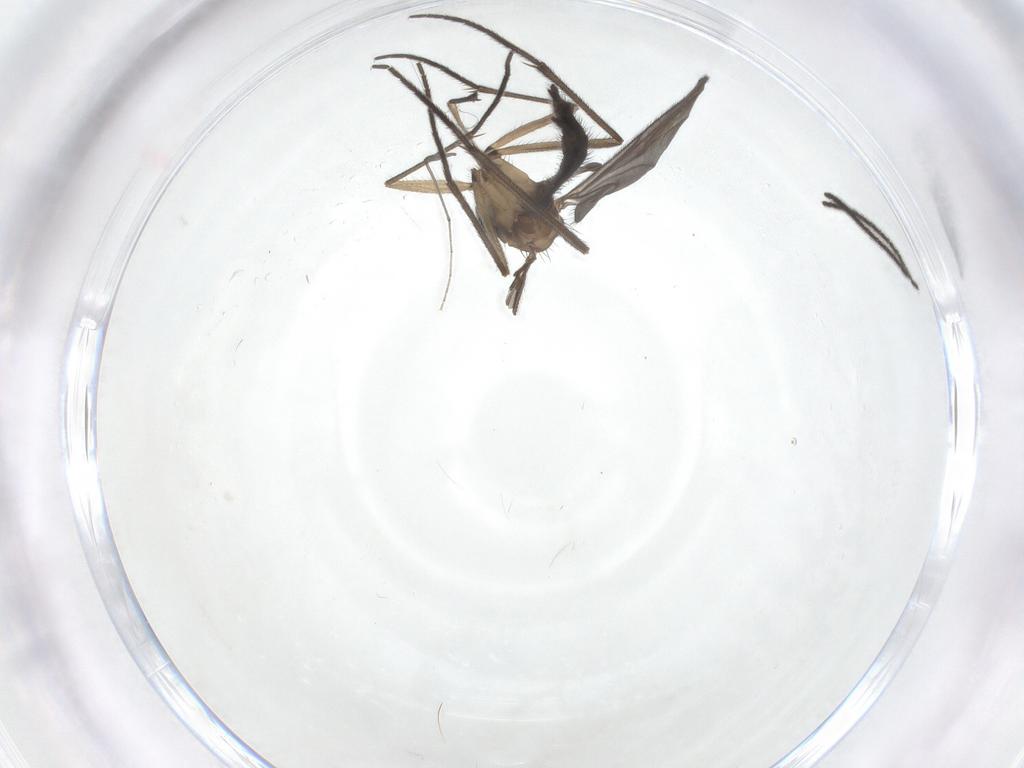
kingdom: Animalia
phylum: Arthropoda
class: Insecta
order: Diptera
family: Sciaridae
